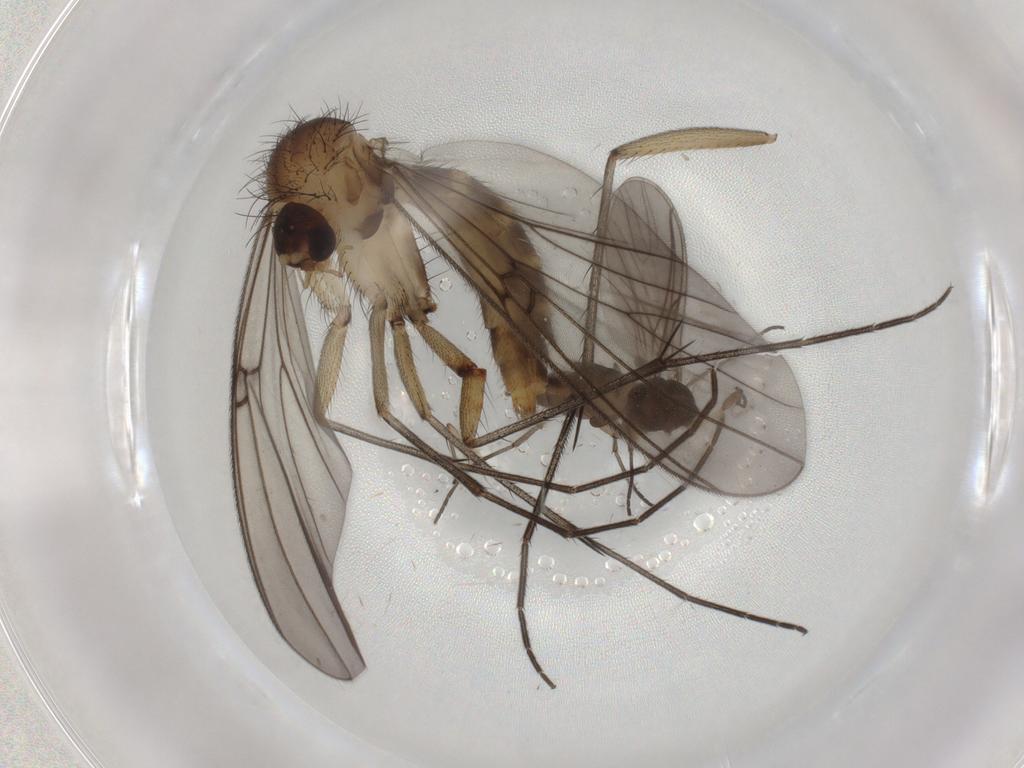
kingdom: Animalia
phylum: Arthropoda
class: Insecta
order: Diptera
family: Mycetophilidae
